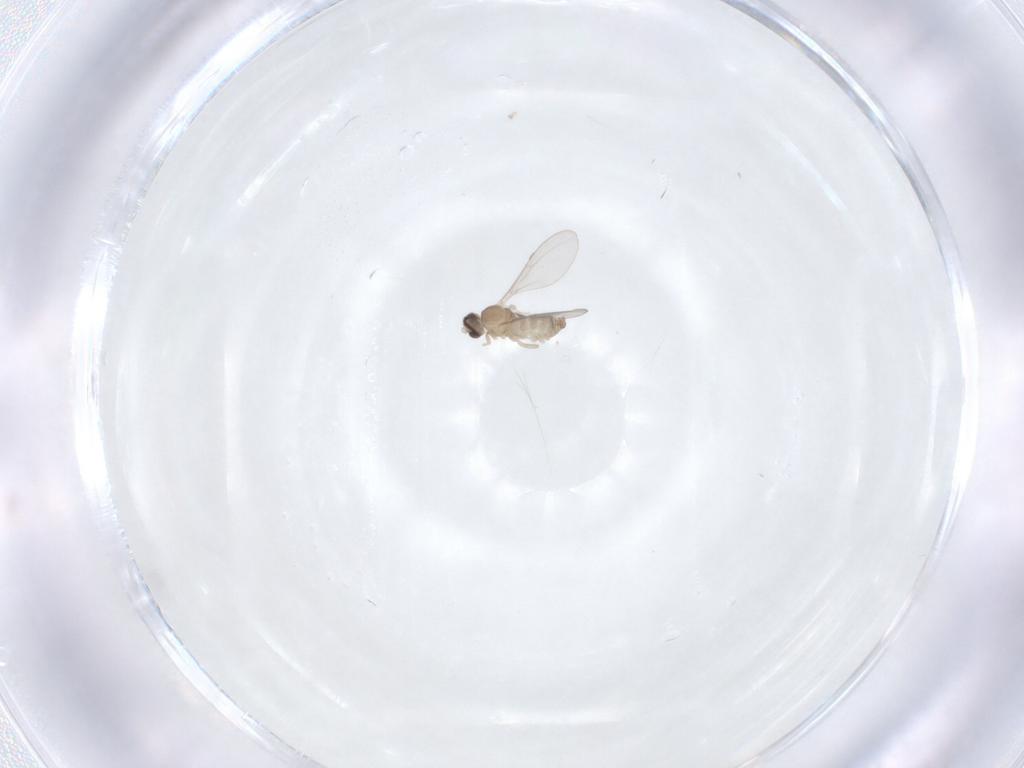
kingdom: Animalia
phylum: Arthropoda
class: Insecta
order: Diptera
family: Cecidomyiidae
